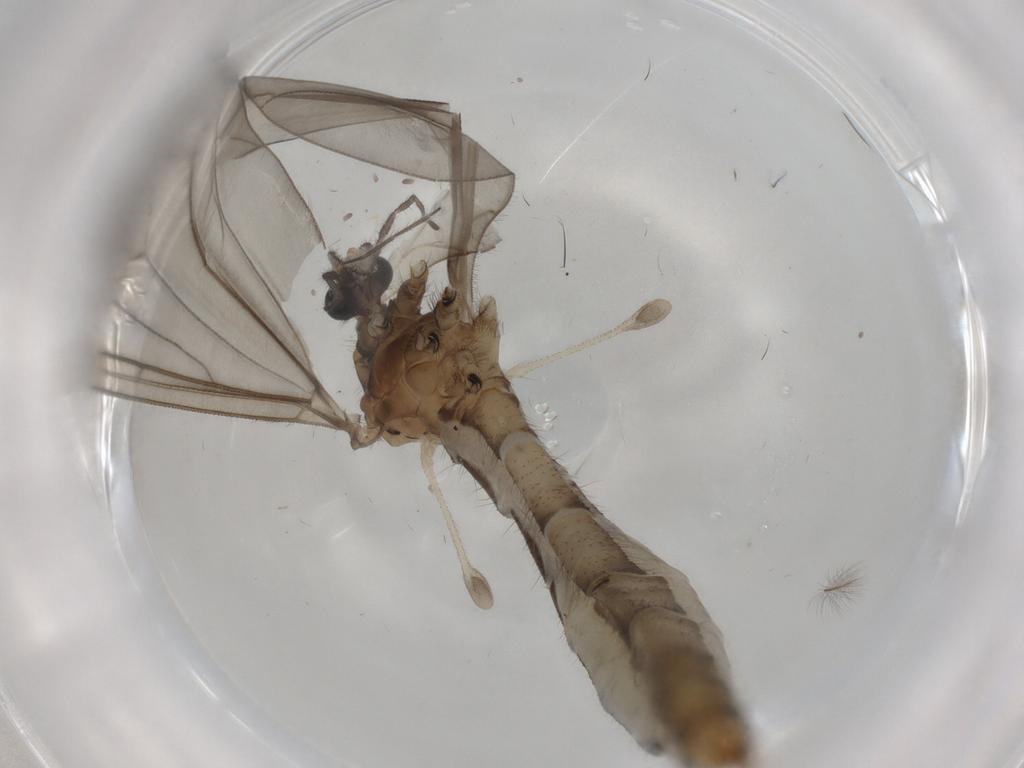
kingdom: Animalia
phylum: Arthropoda
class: Insecta
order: Diptera
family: Trichoceridae
